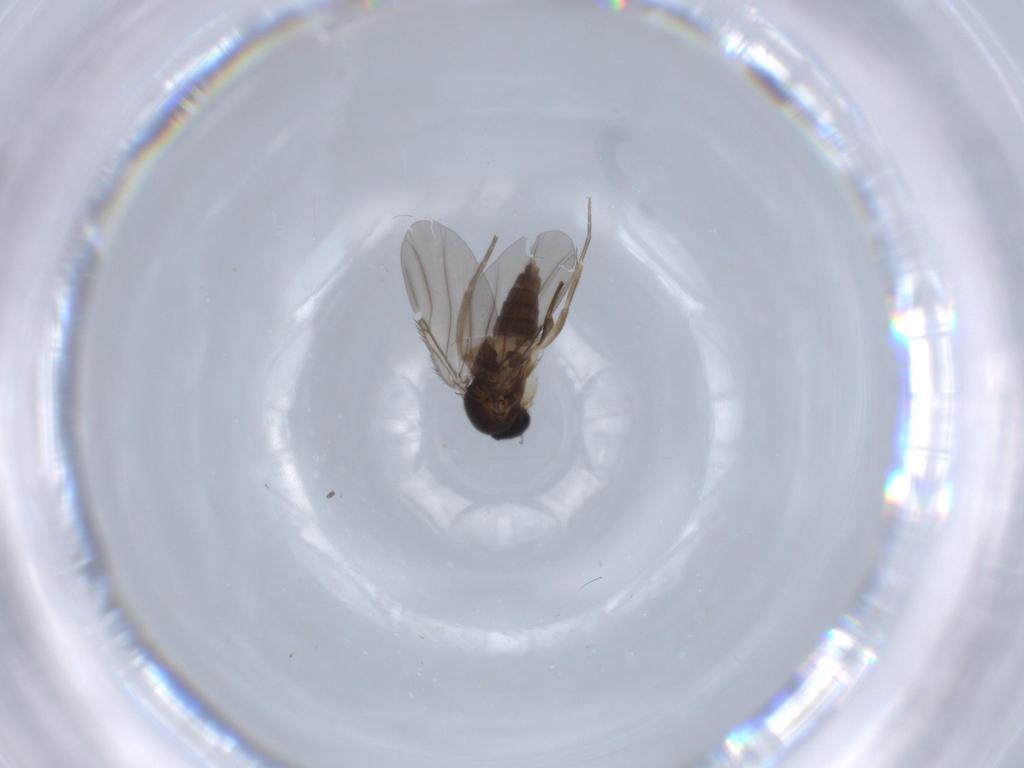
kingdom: Animalia
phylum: Arthropoda
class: Insecta
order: Diptera
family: Phoridae
